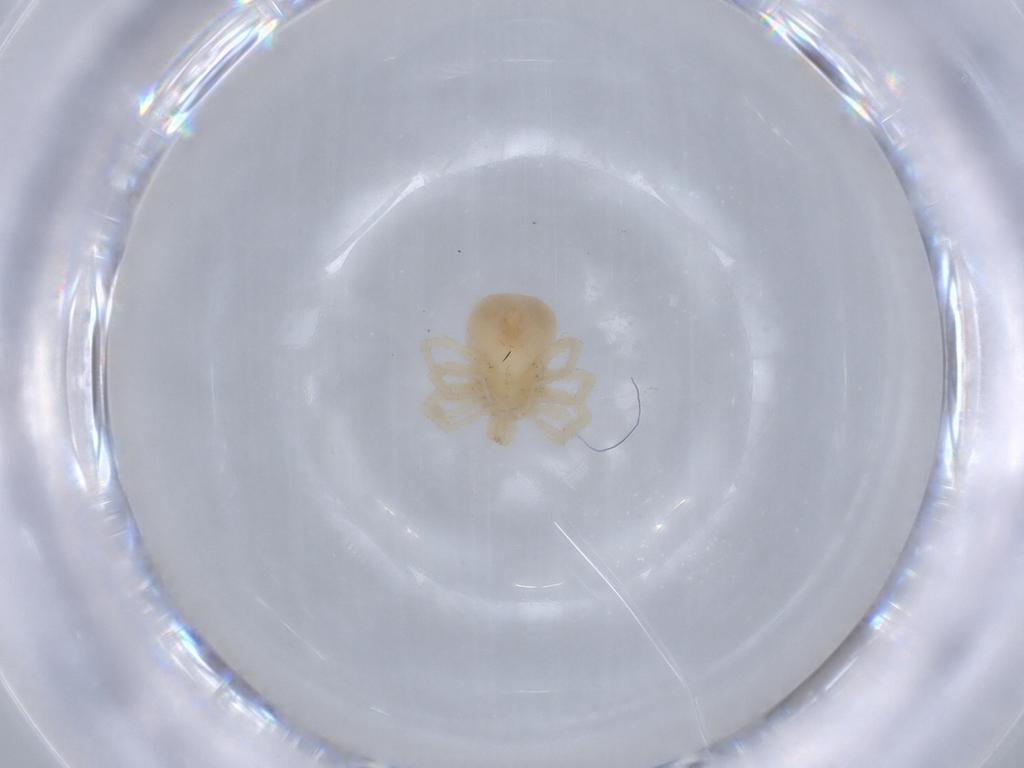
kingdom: Animalia
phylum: Arthropoda
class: Arachnida
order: Trombidiformes
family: Anystidae
